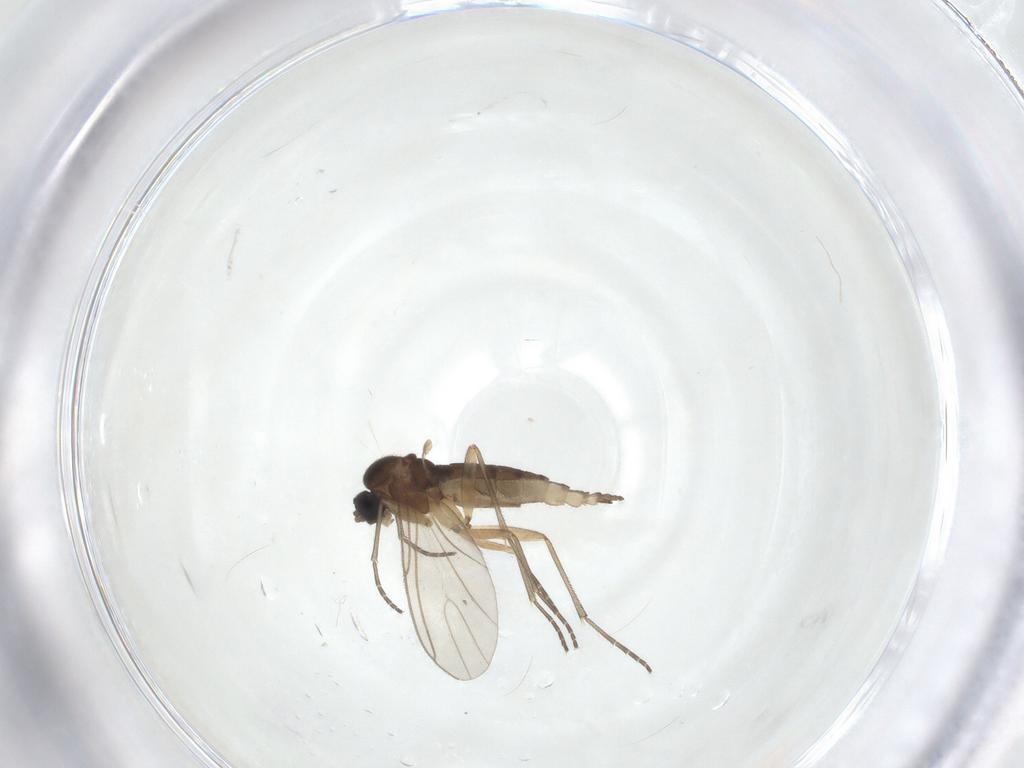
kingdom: Animalia
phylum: Arthropoda
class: Insecta
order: Diptera
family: Sciaridae
